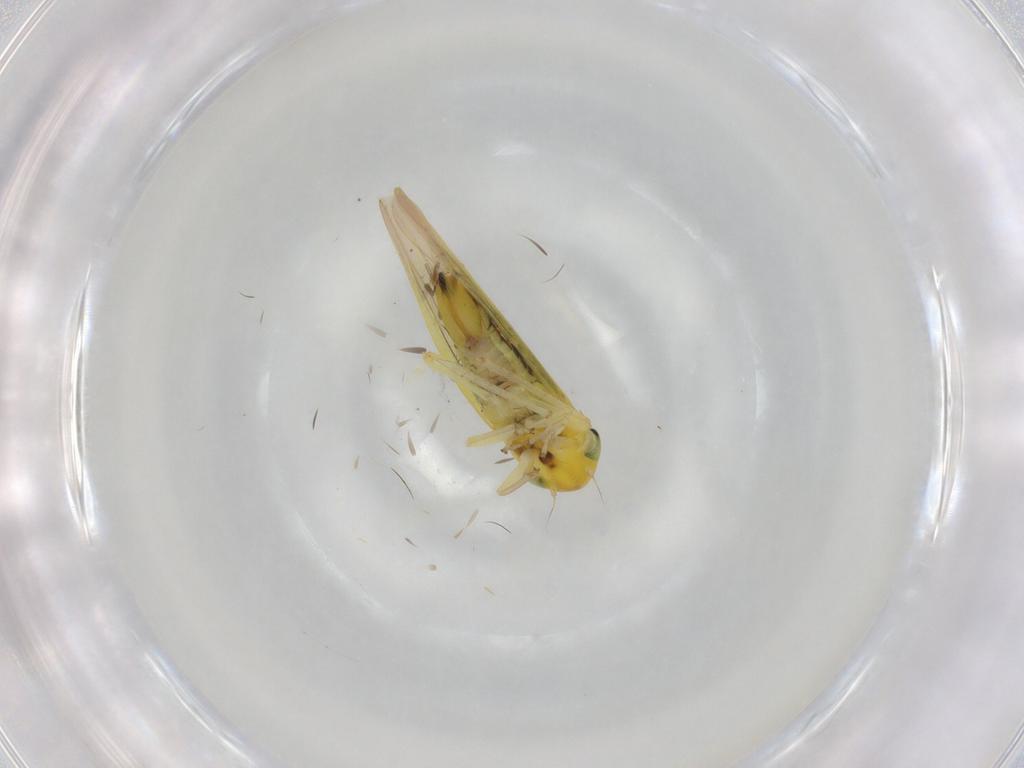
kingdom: Animalia
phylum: Arthropoda
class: Insecta
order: Hemiptera
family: Cicadellidae
